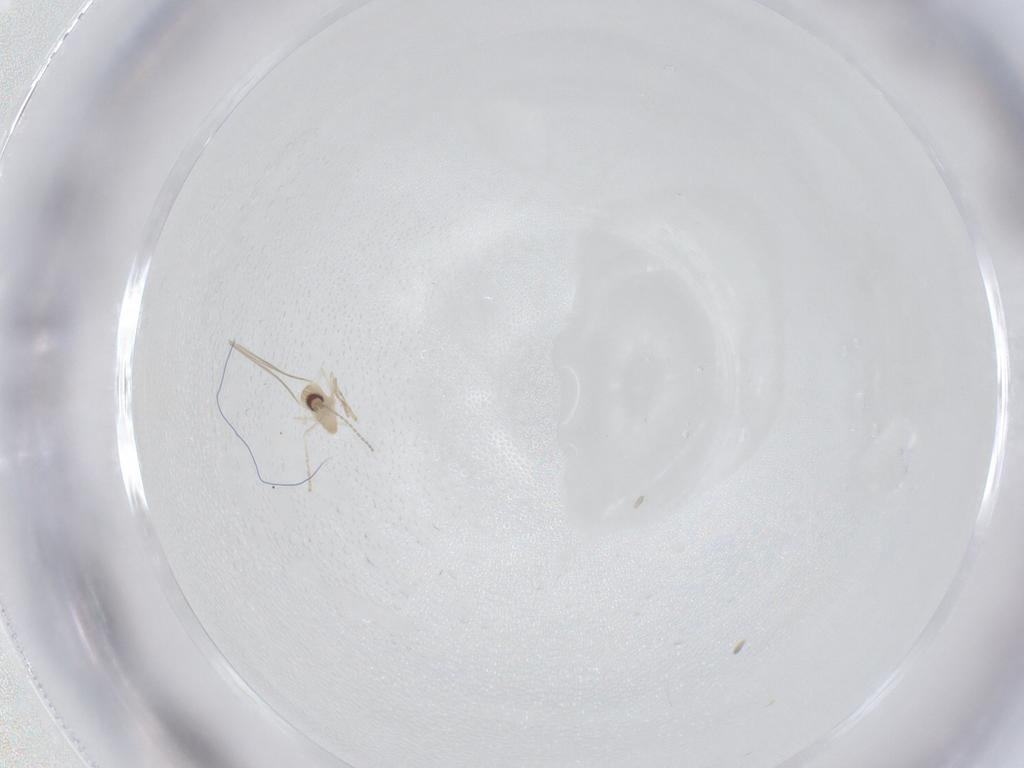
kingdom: Animalia
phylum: Arthropoda
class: Insecta
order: Diptera
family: Cecidomyiidae
